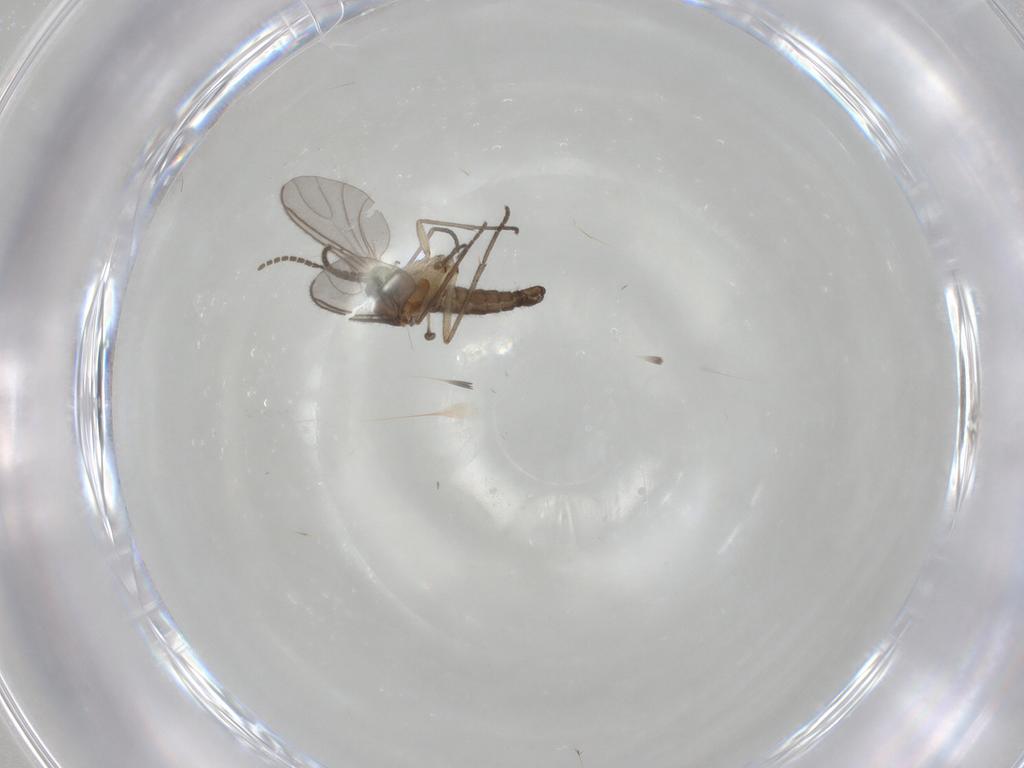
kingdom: Animalia
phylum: Arthropoda
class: Insecta
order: Diptera
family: Sciaridae
